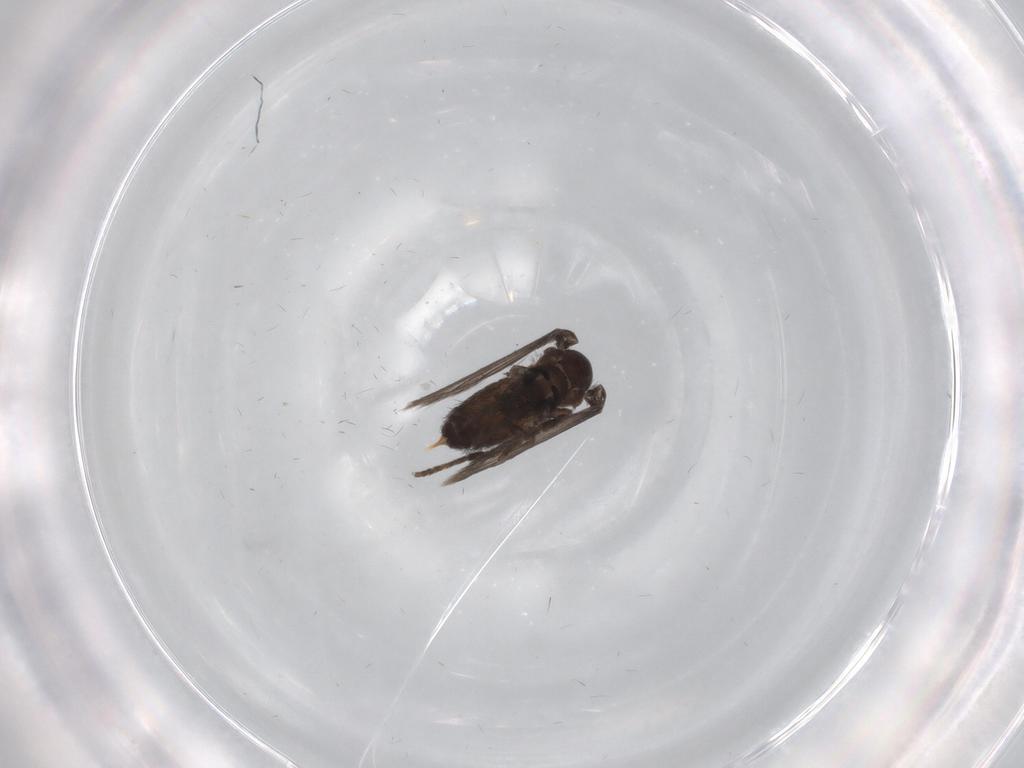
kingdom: Animalia
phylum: Arthropoda
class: Insecta
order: Diptera
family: Psychodidae
